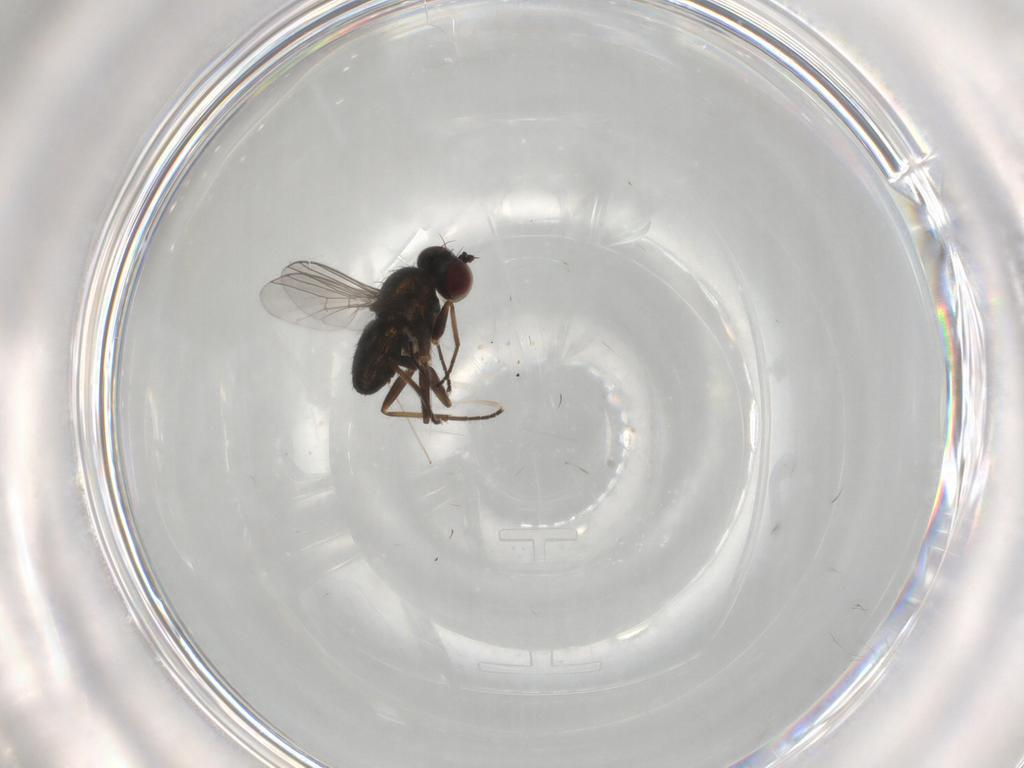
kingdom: Animalia
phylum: Arthropoda
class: Insecta
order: Diptera
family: Dolichopodidae
